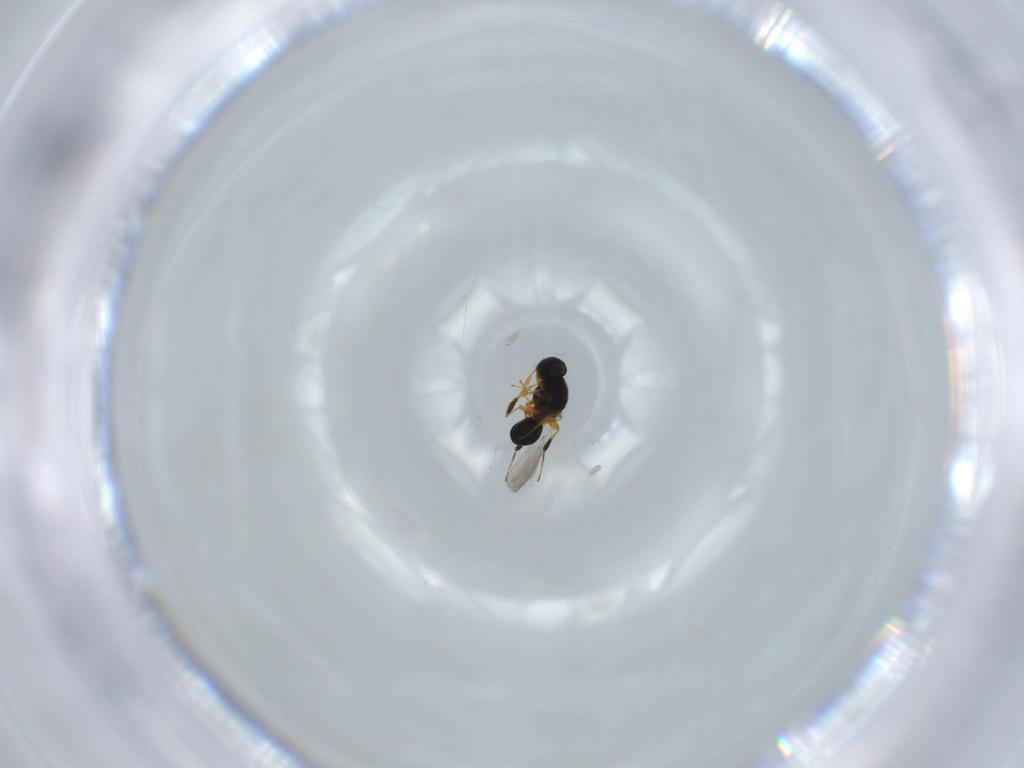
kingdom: Animalia
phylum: Arthropoda
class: Insecta
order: Hymenoptera
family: Platygastridae
